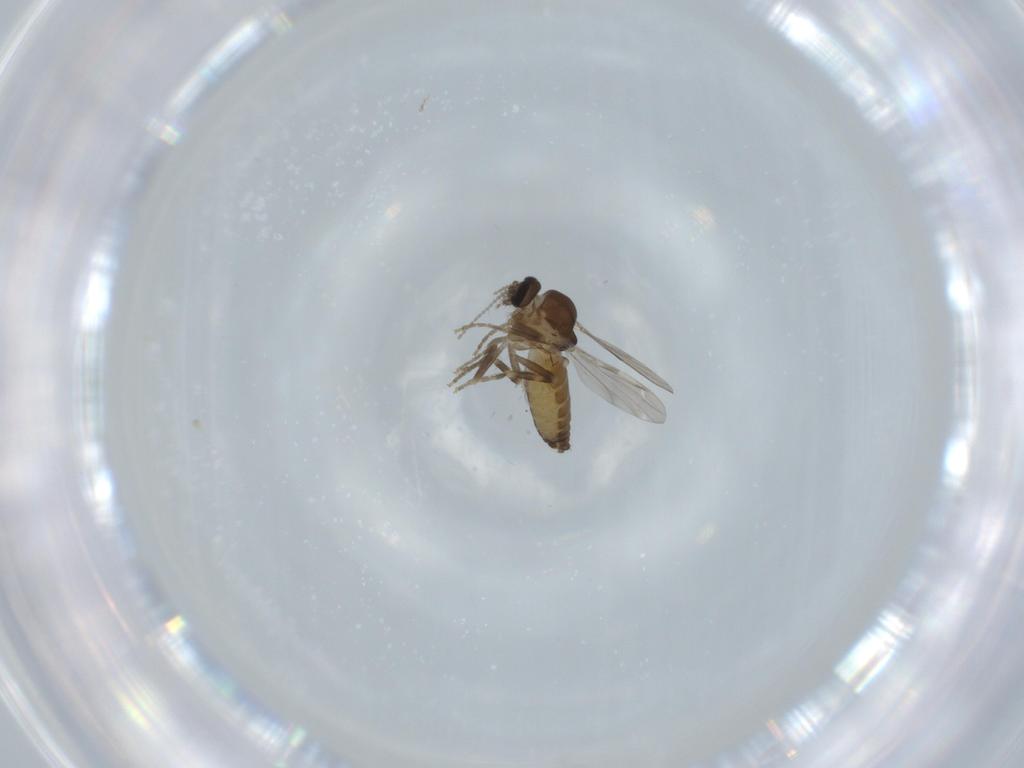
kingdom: Animalia
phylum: Arthropoda
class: Insecta
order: Diptera
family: Ceratopogonidae
